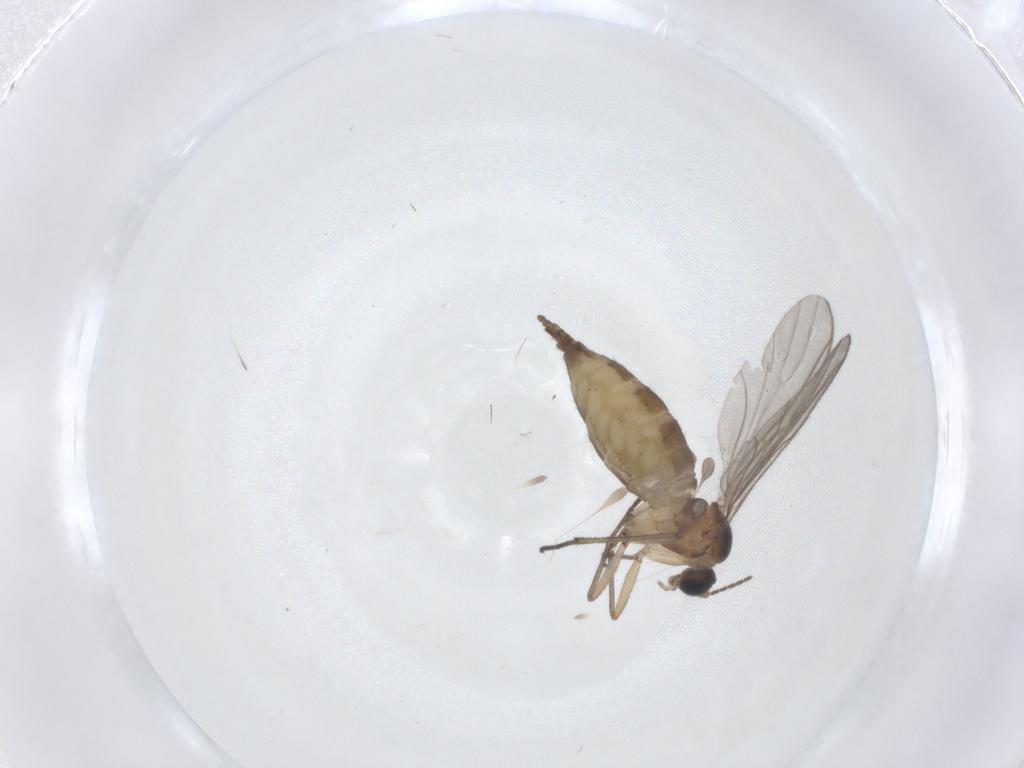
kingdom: Animalia
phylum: Arthropoda
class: Insecta
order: Diptera
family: Sciaridae
